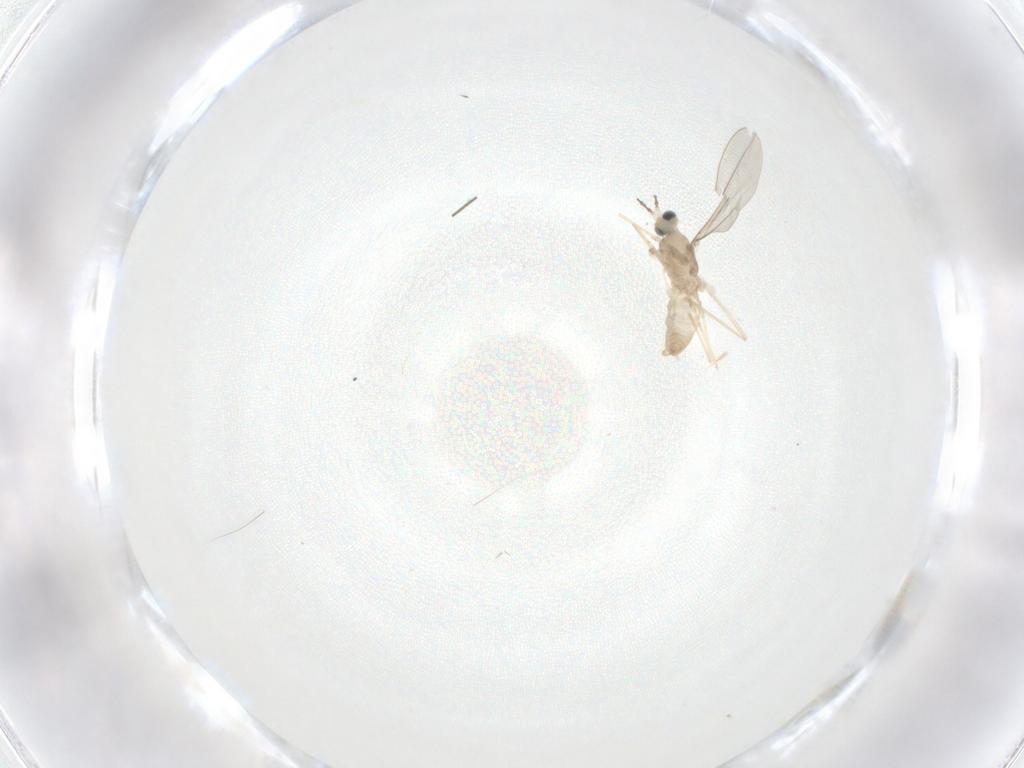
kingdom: Animalia
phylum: Arthropoda
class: Insecta
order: Diptera
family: Cecidomyiidae
